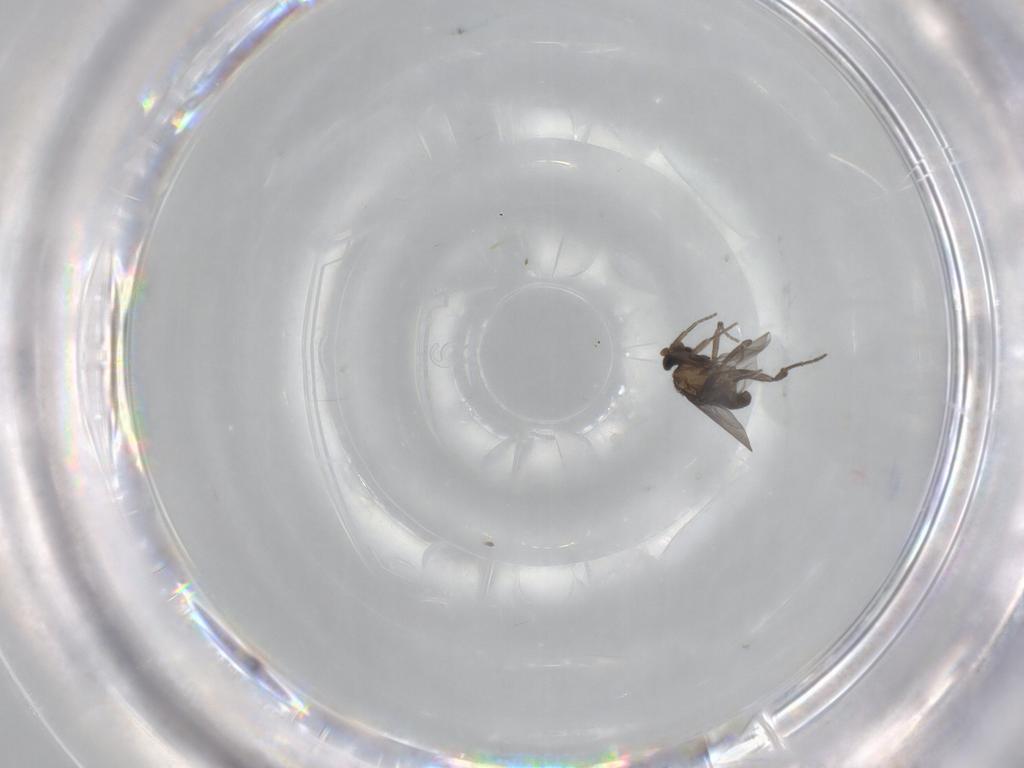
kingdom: Animalia
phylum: Arthropoda
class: Insecta
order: Diptera
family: Phoridae
